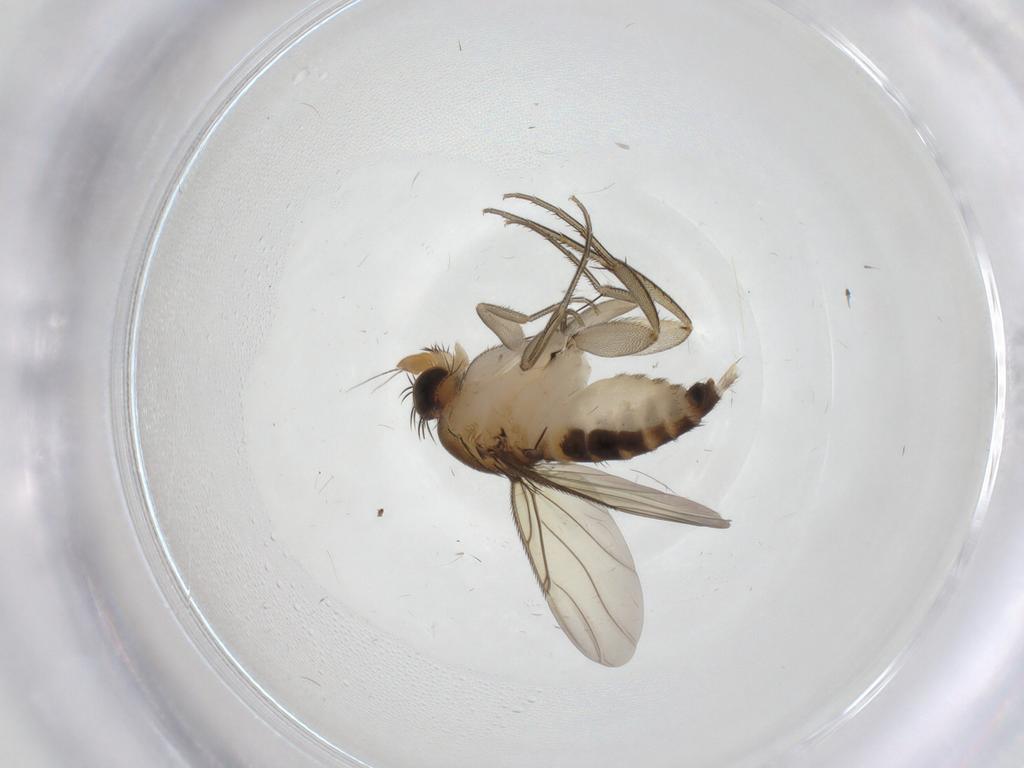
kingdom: Animalia
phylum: Arthropoda
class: Insecta
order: Diptera
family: Phoridae
